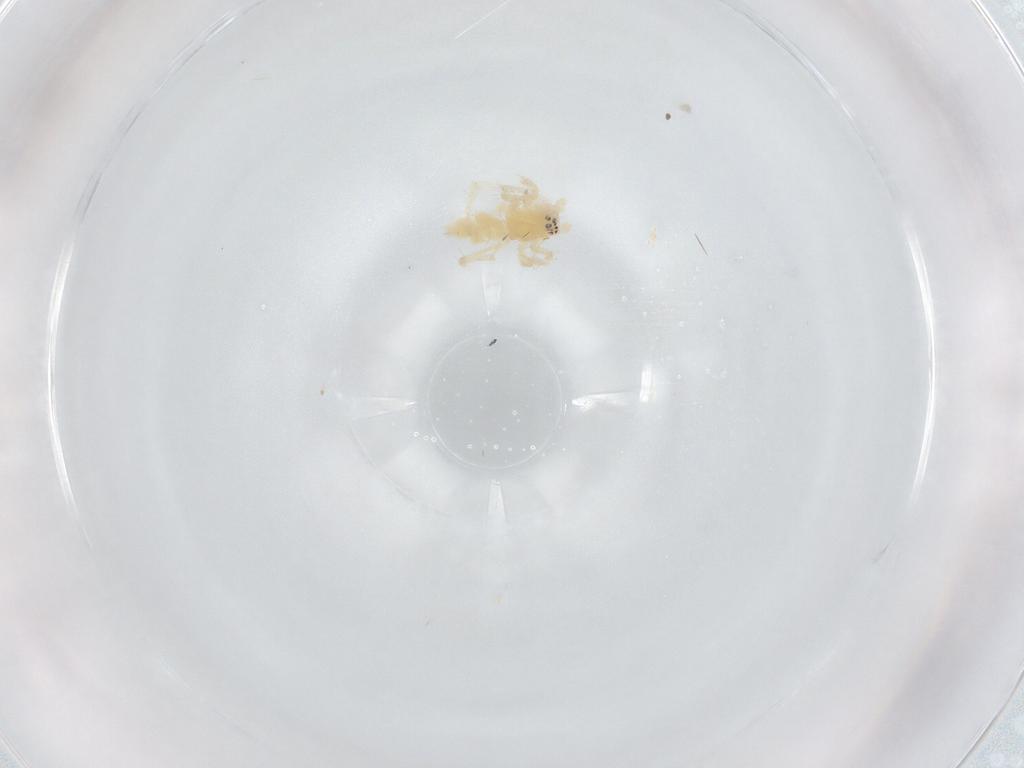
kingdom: Animalia
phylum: Arthropoda
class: Arachnida
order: Araneae
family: Anyphaenidae
